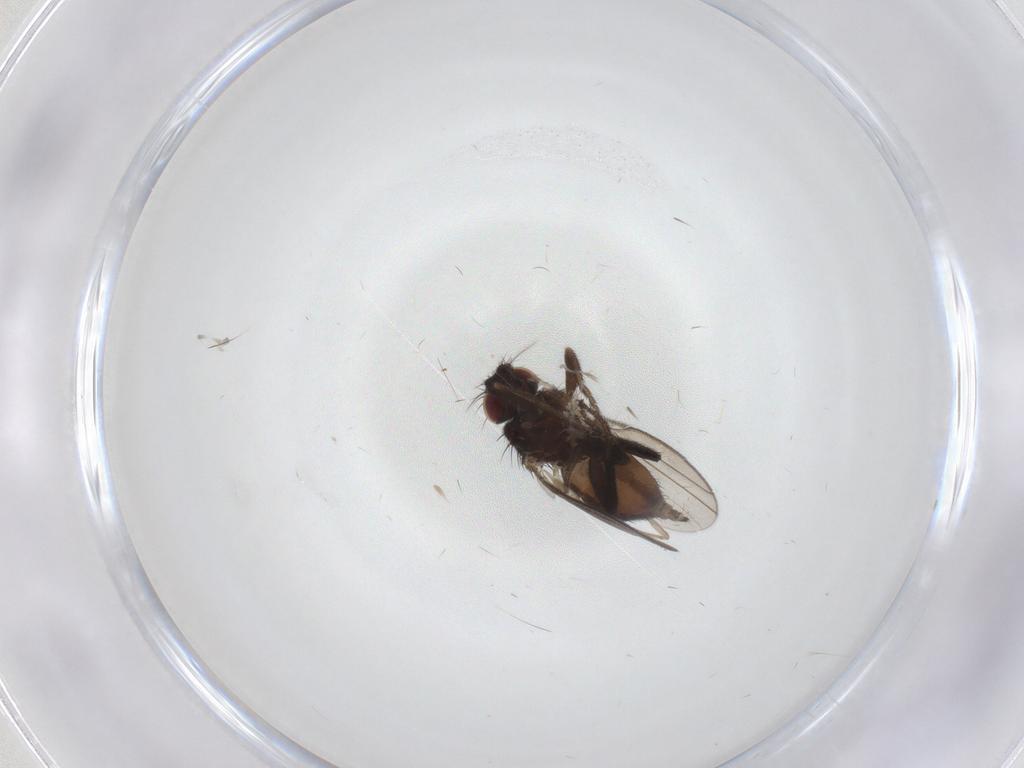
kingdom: Animalia
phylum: Arthropoda
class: Insecta
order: Diptera
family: Milichiidae
